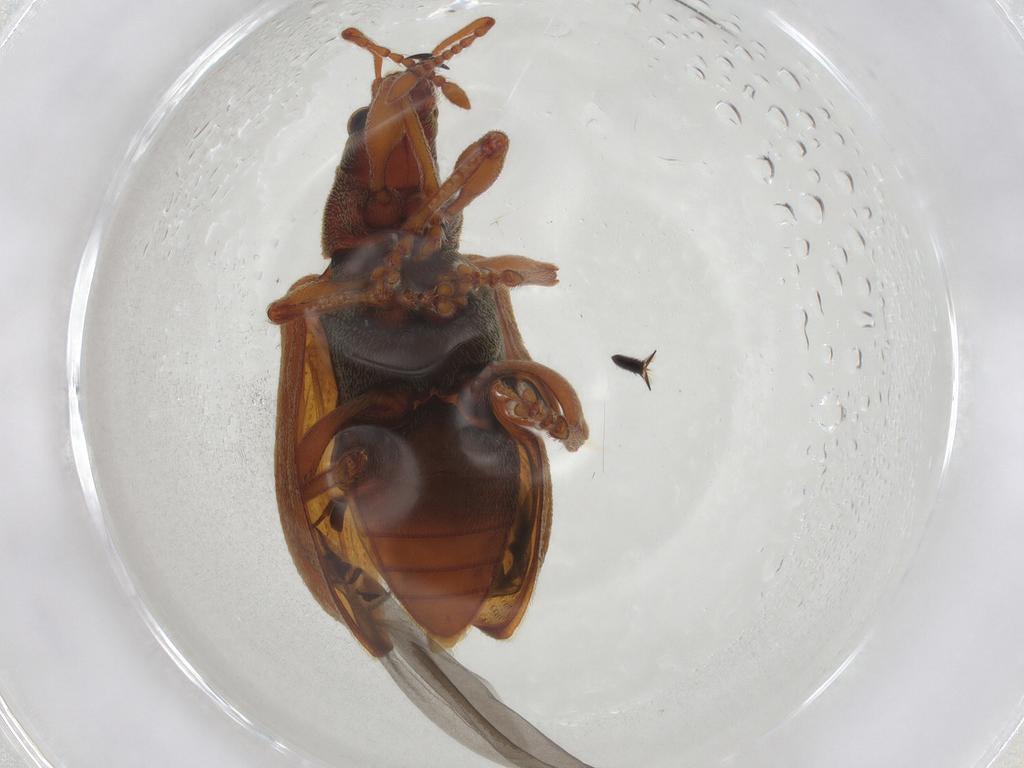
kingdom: Animalia
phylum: Arthropoda
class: Insecta
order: Coleoptera
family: Curculionidae
